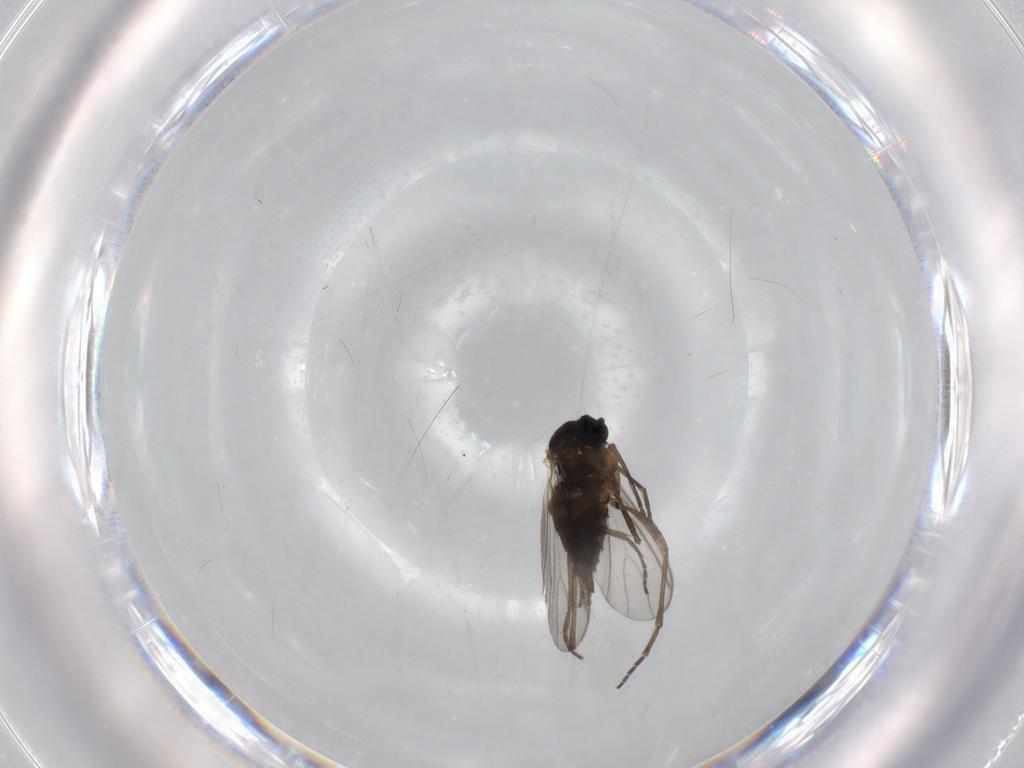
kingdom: Animalia
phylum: Arthropoda
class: Insecta
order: Diptera
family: Sciaridae
